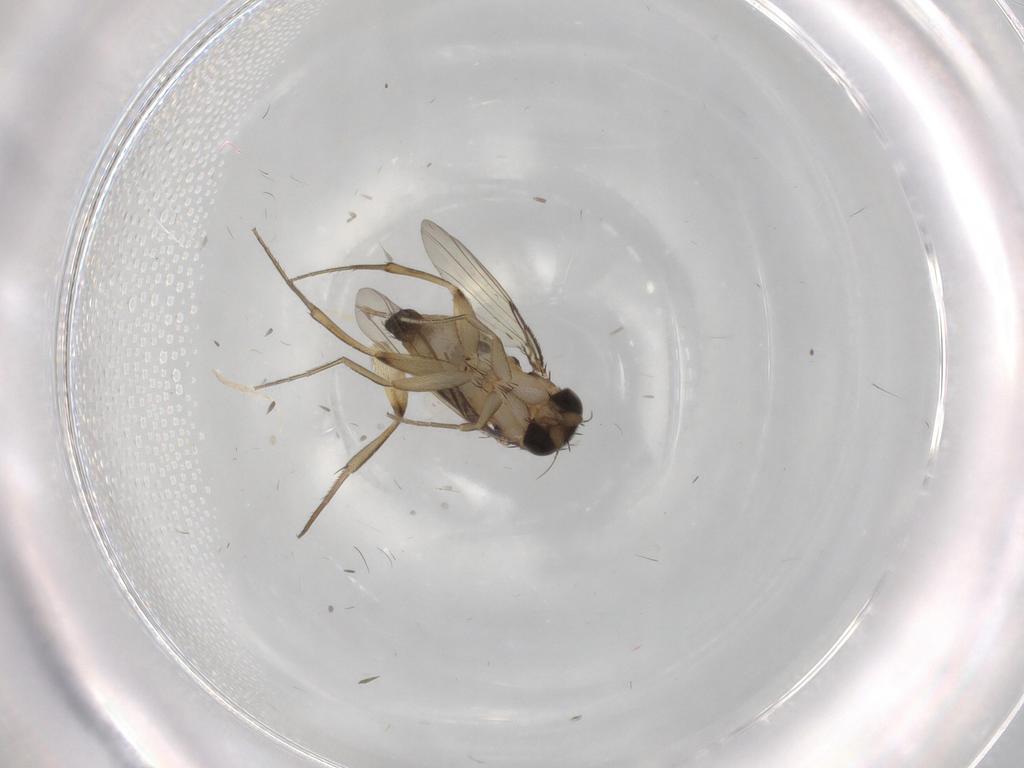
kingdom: Animalia
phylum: Arthropoda
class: Insecta
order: Diptera
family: Phoridae
